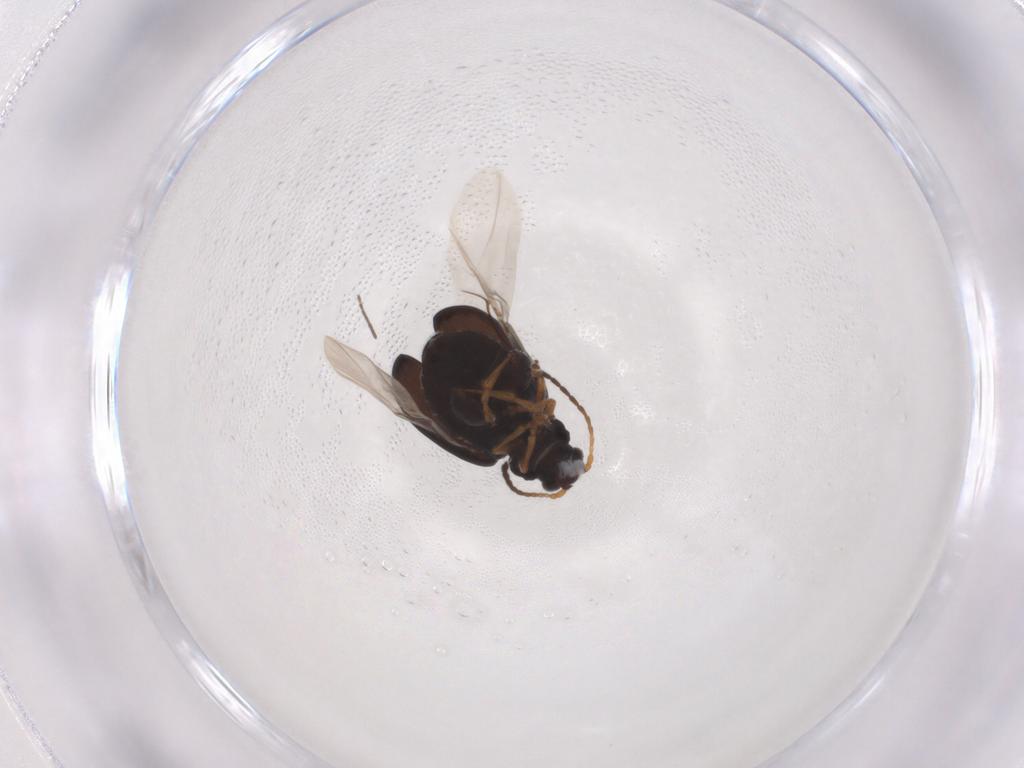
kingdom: Animalia
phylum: Arthropoda
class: Insecta
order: Coleoptera
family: Chrysomelidae
